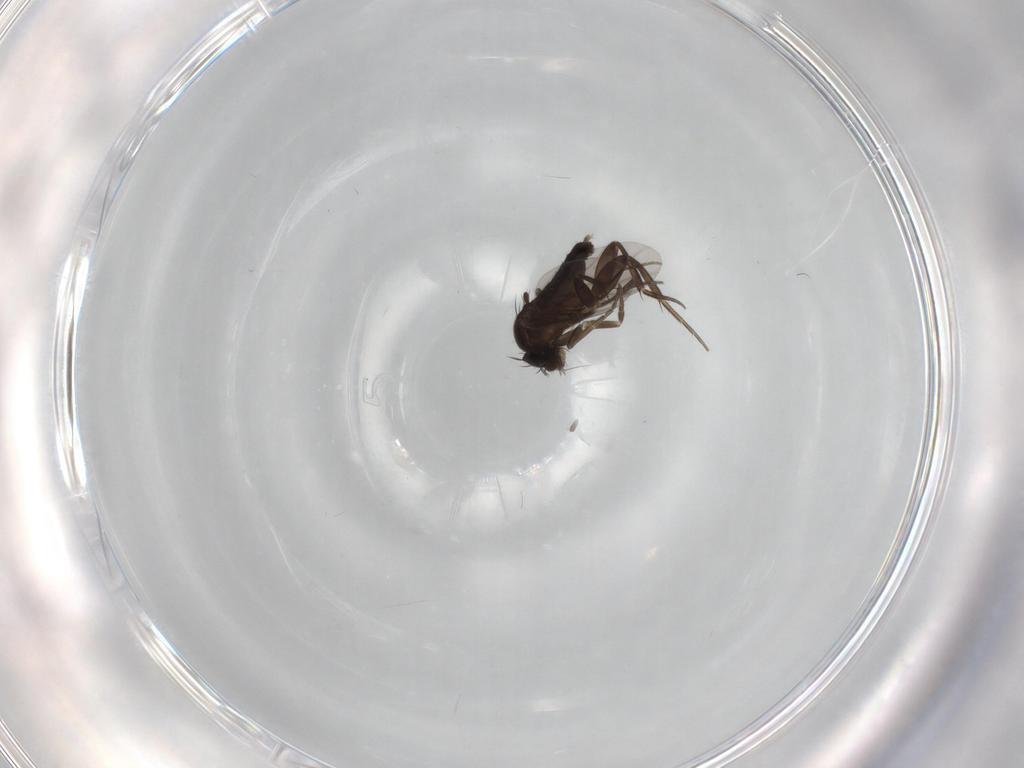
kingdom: Animalia
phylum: Arthropoda
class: Insecta
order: Diptera
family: Phoridae
